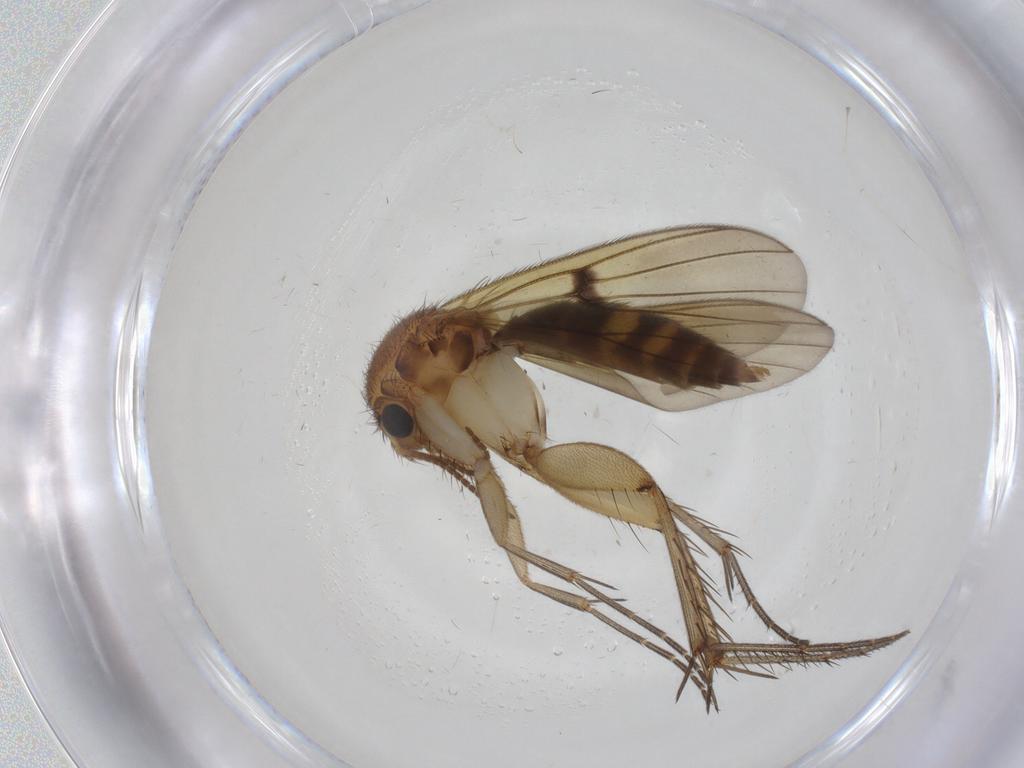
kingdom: Animalia
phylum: Arthropoda
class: Insecta
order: Diptera
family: Mycetophilidae
